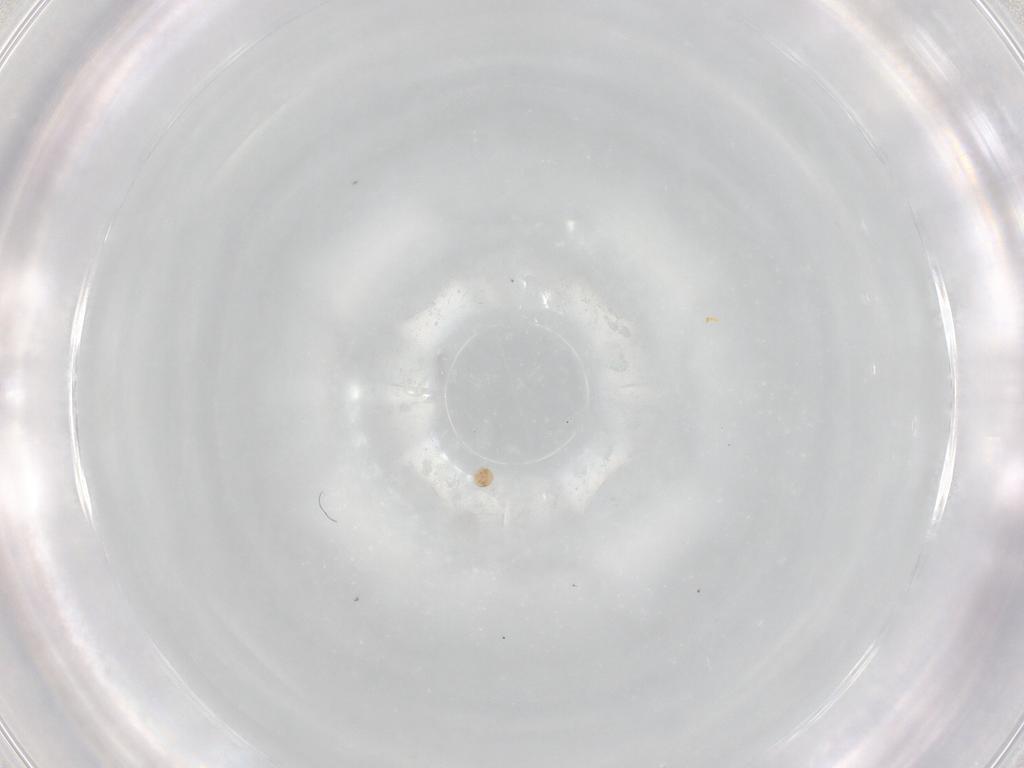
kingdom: Animalia
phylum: Arthropoda
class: Arachnida
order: Trombidiformes
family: Scutacaridae
